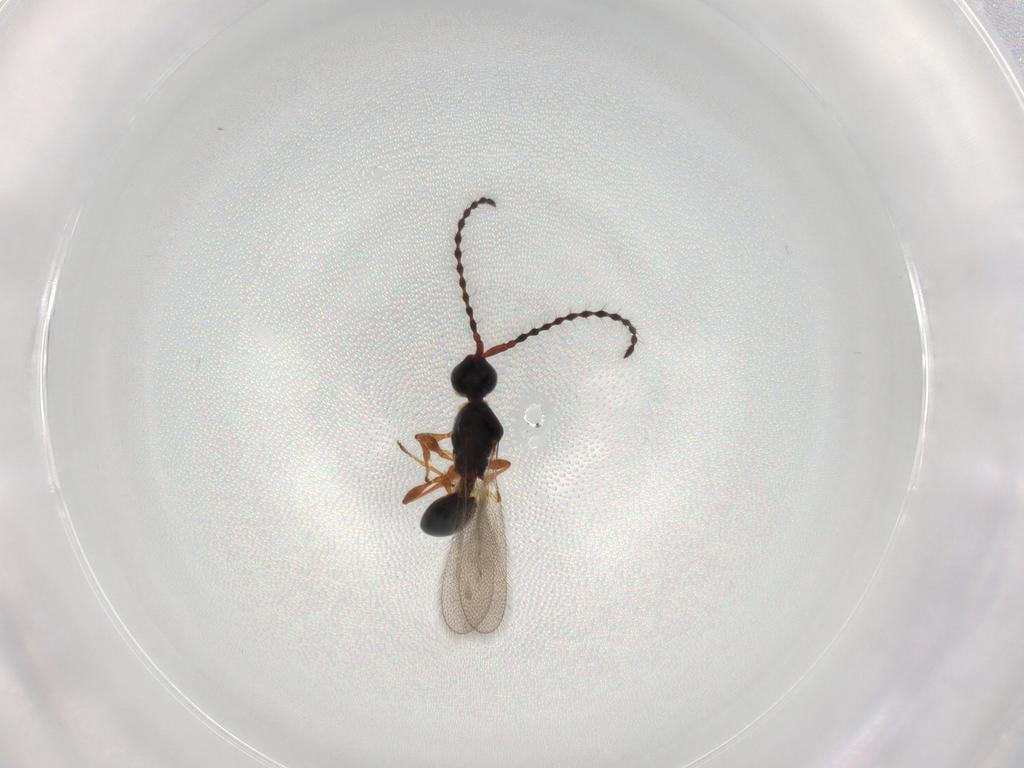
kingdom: Animalia
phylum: Arthropoda
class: Insecta
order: Hymenoptera
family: Diapriidae
